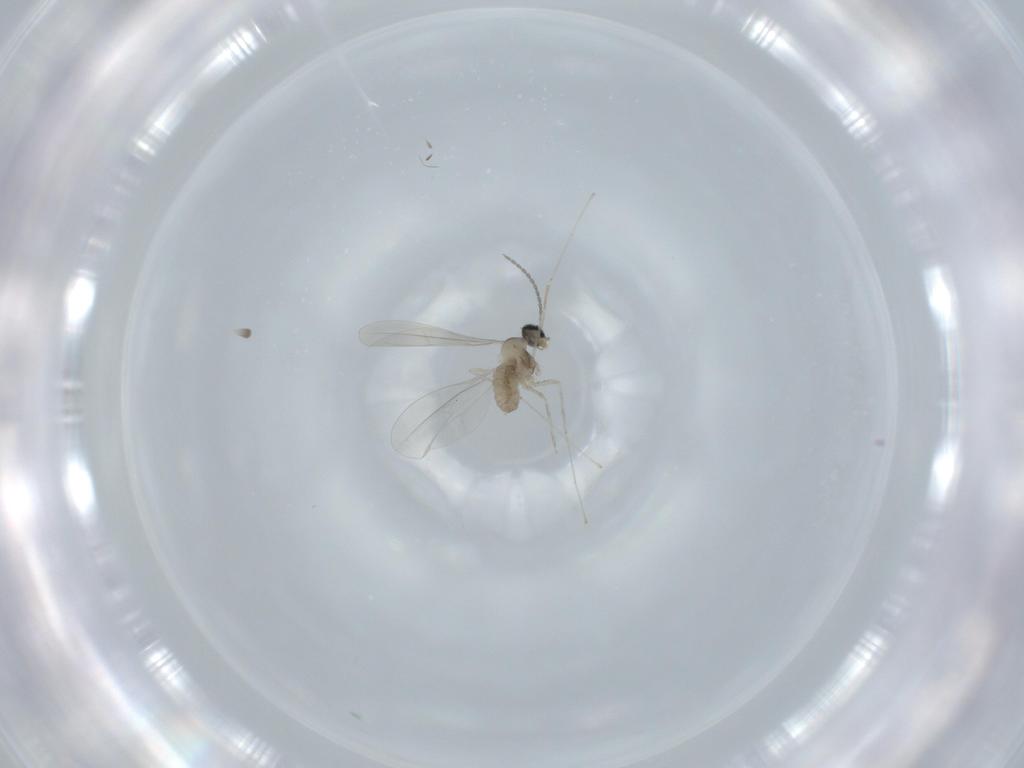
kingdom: Animalia
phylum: Arthropoda
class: Insecta
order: Diptera
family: Cecidomyiidae
